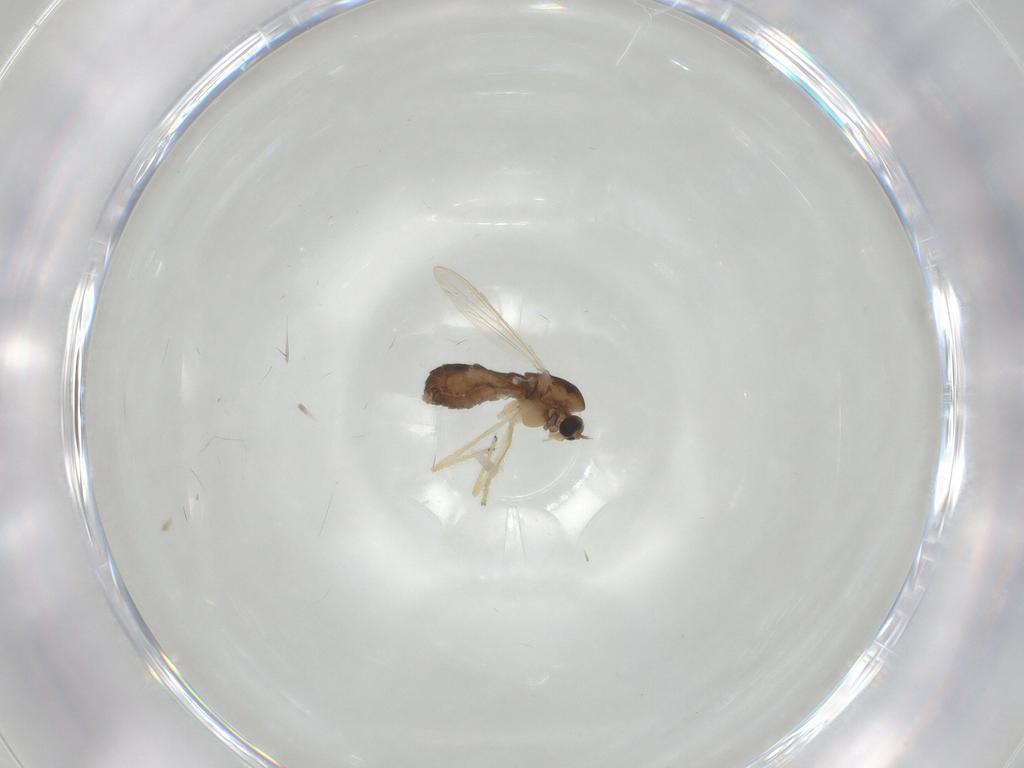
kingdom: Animalia
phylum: Arthropoda
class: Insecta
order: Diptera
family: Chironomidae
